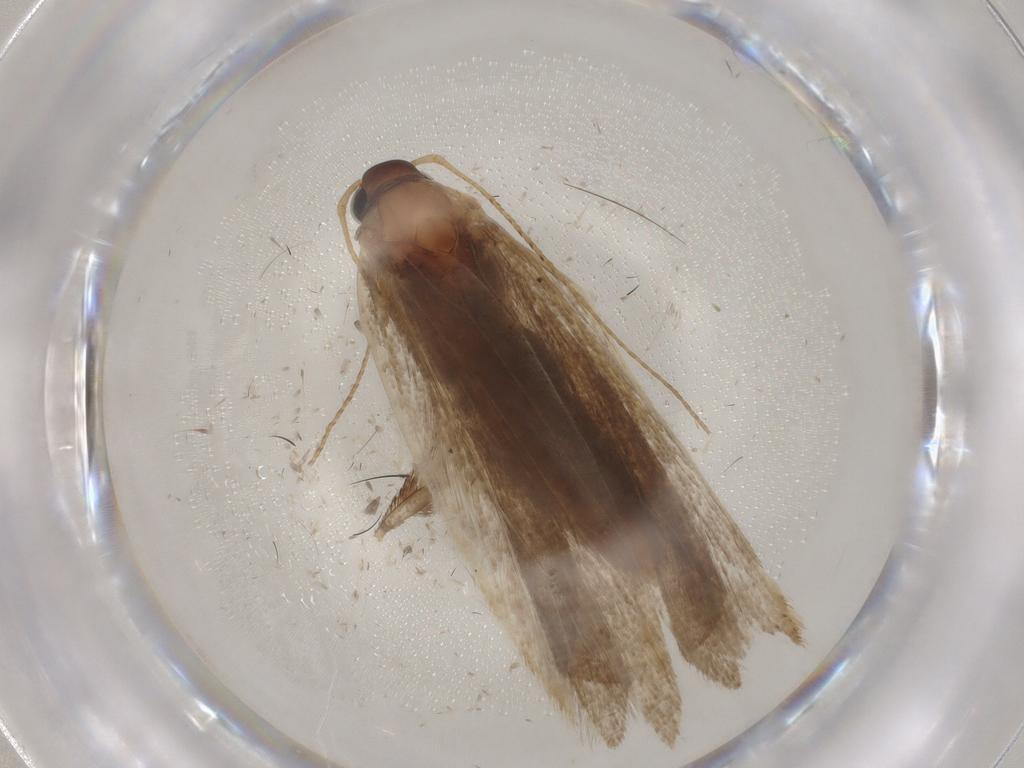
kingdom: Animalia
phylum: Arthropoda
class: Insecta
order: Lepidoptera
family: Gelechiidae
